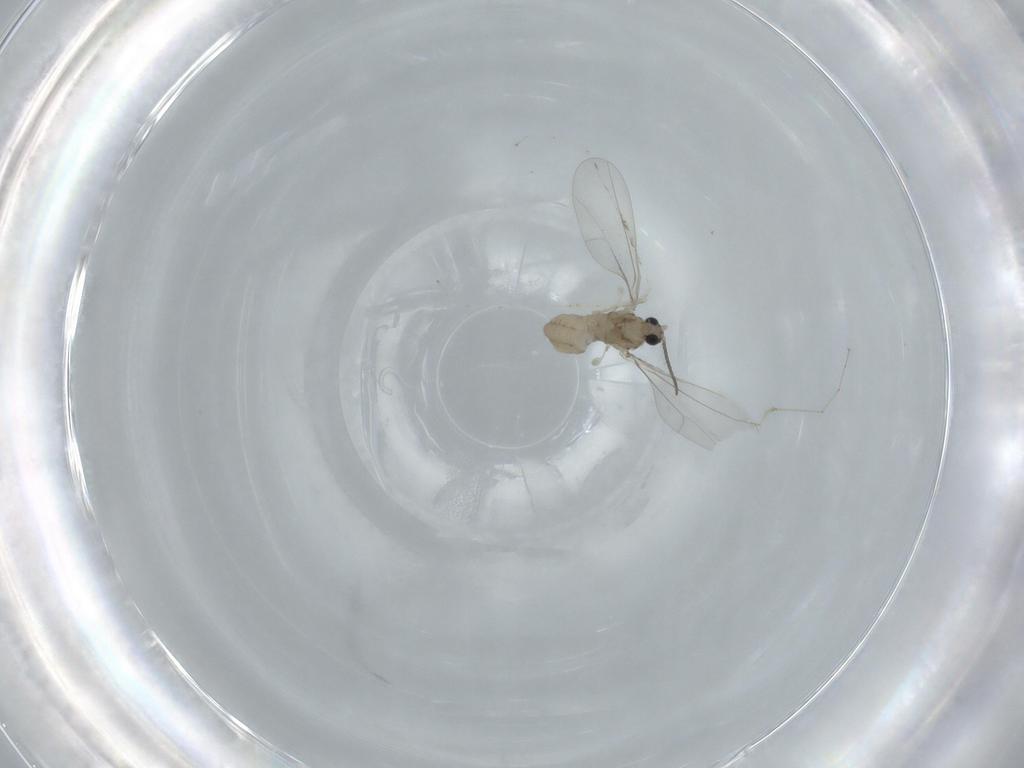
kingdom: Animalia
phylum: Arthropoda
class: Insecta
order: Diptera
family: Cecidomyiidae
